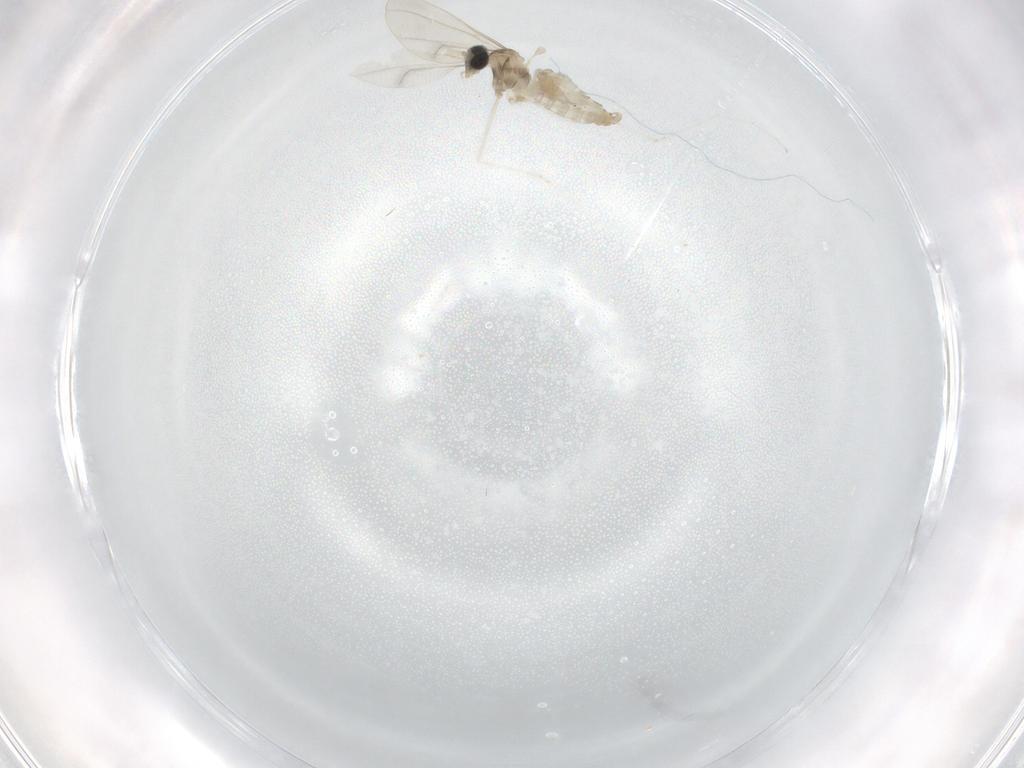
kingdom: Animalia
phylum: Arthropoda
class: Insecta
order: Diptera
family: Cecidomyiidae
